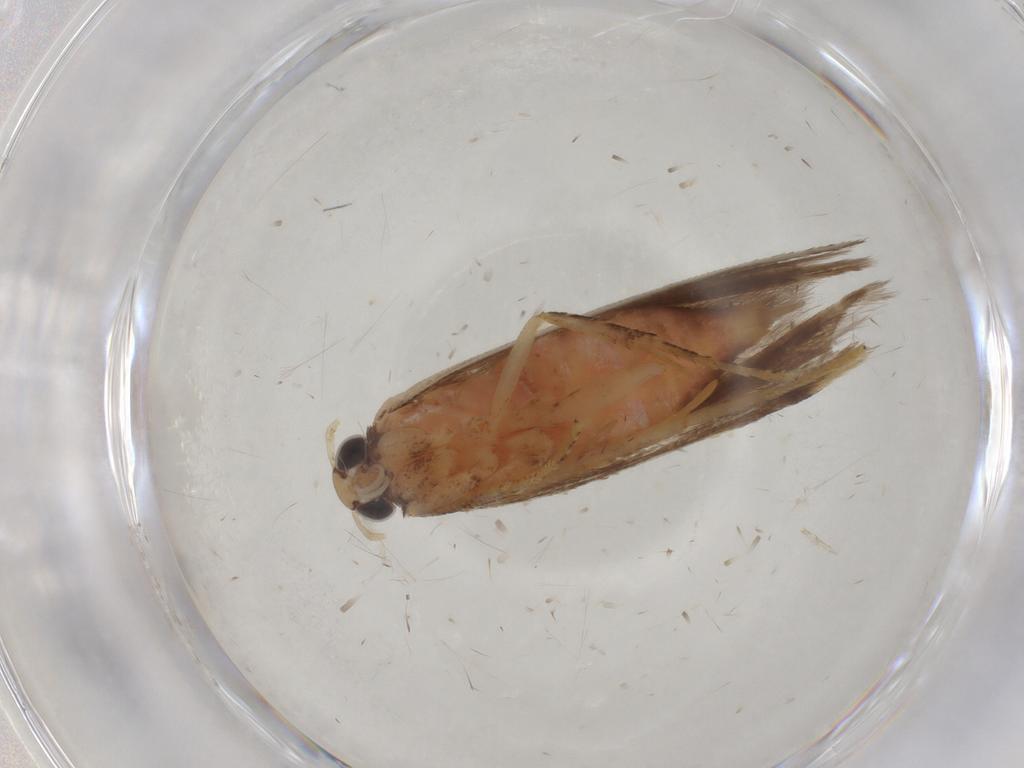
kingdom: Animalia
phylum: Arthropoda
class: Insecta
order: Lepidoptera
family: Gelechiidae
